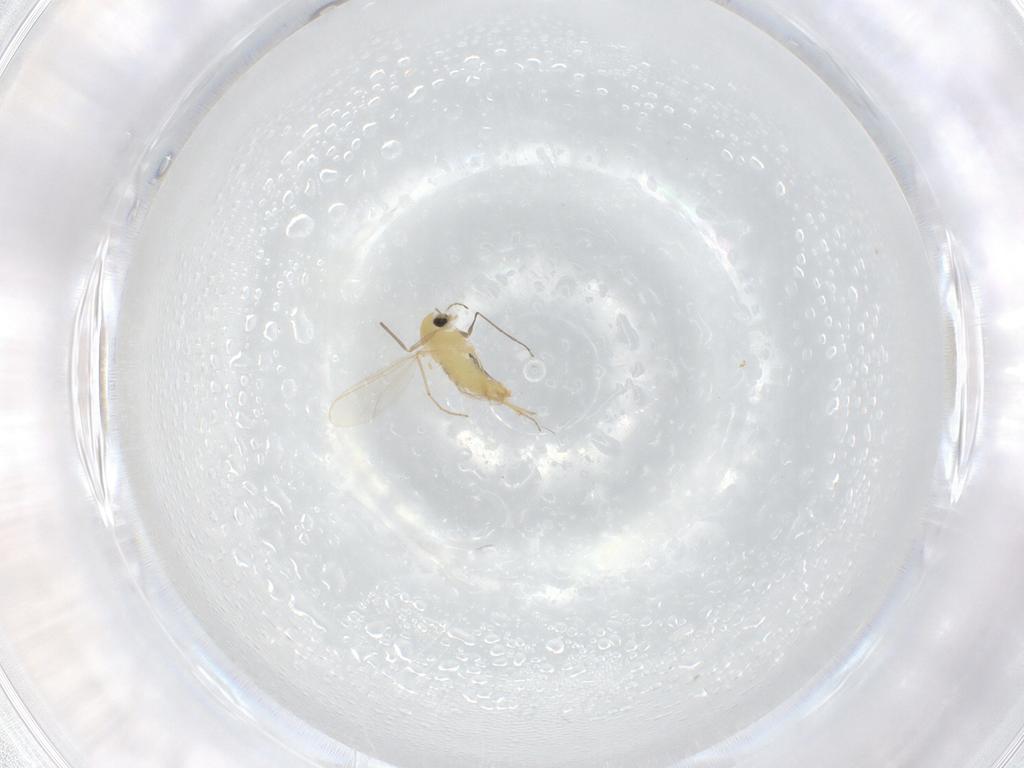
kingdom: Animalia
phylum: Arthropoda
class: Insecta
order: Diptera
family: Chironomidae
